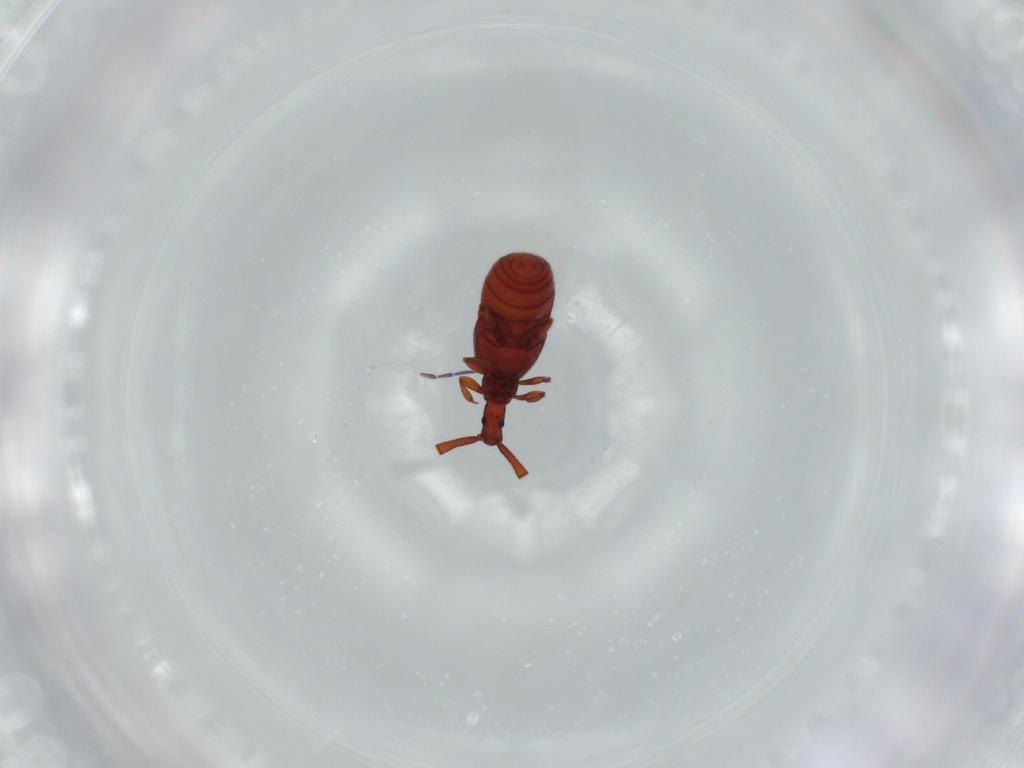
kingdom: Animalia
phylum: Arthropoda
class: Insecta
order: Coleoptera
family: Staphylinidae
